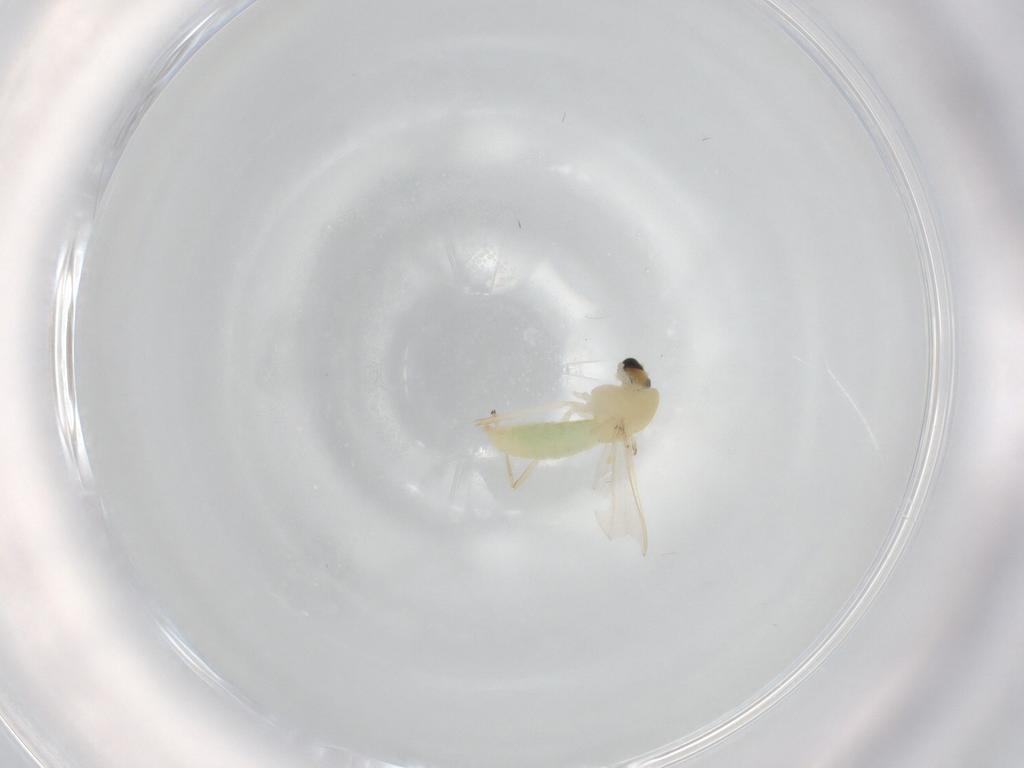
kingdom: Animalia
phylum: Arthropoda
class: Insecta
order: Diptera
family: Chironomidae
